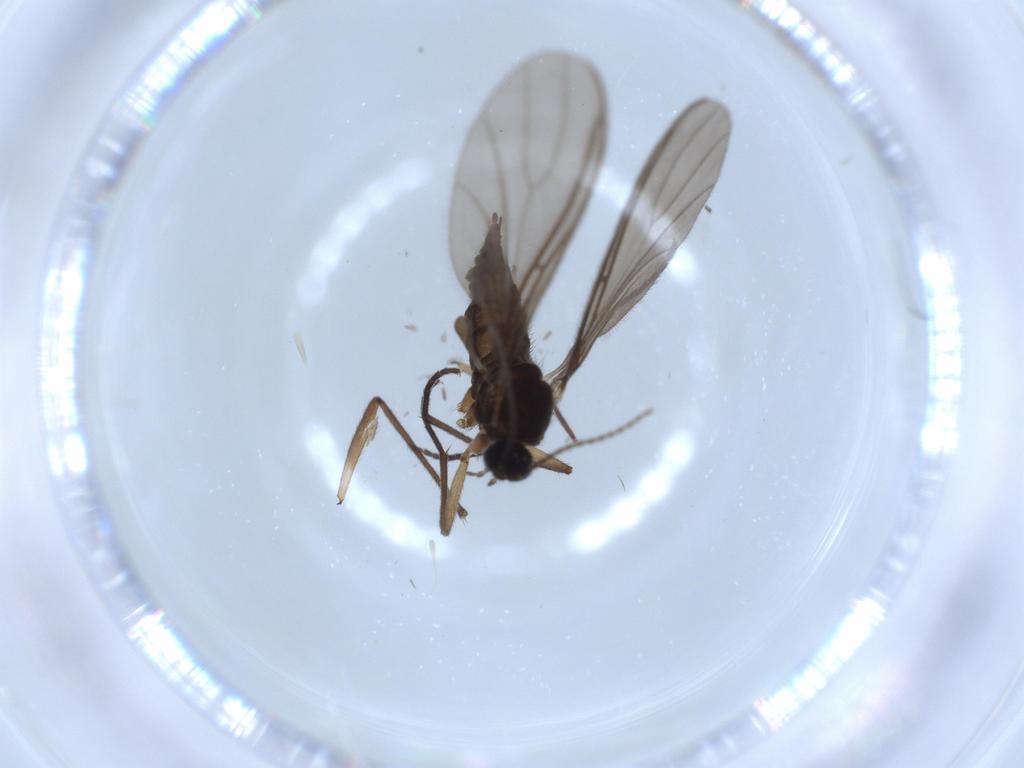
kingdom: Animalia
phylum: Arthropoda
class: Insecta
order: Diptera
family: Sciaridae
